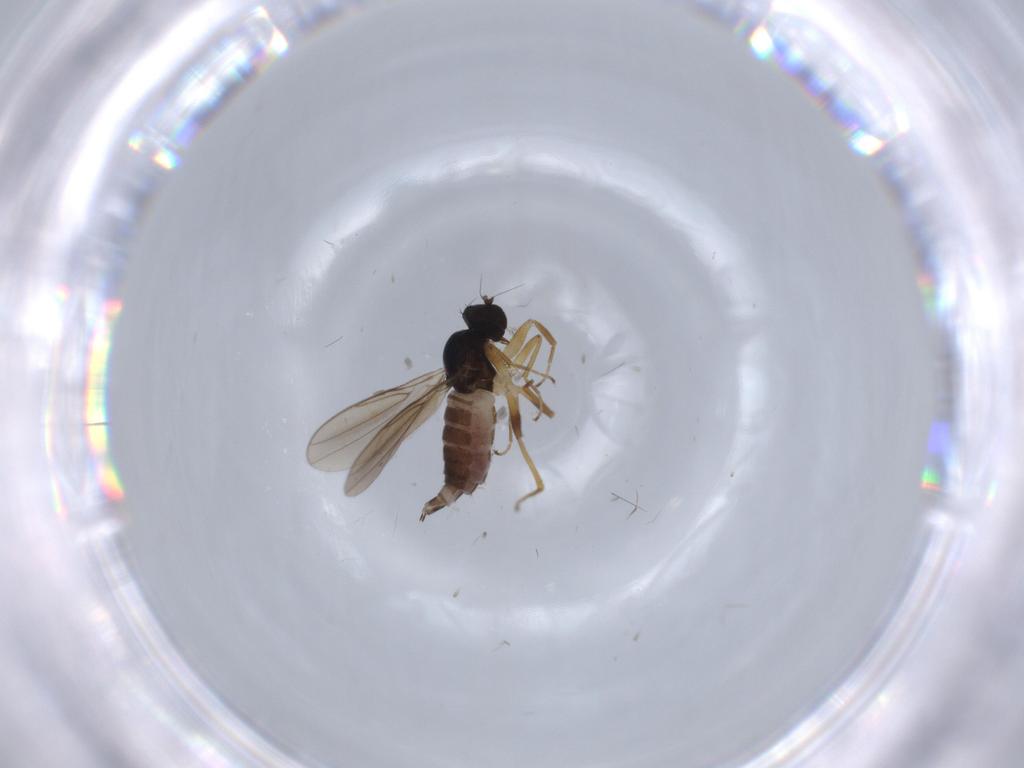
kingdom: Animalia
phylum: Arthropoda
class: Insecta
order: Diptera
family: Hybotidae
